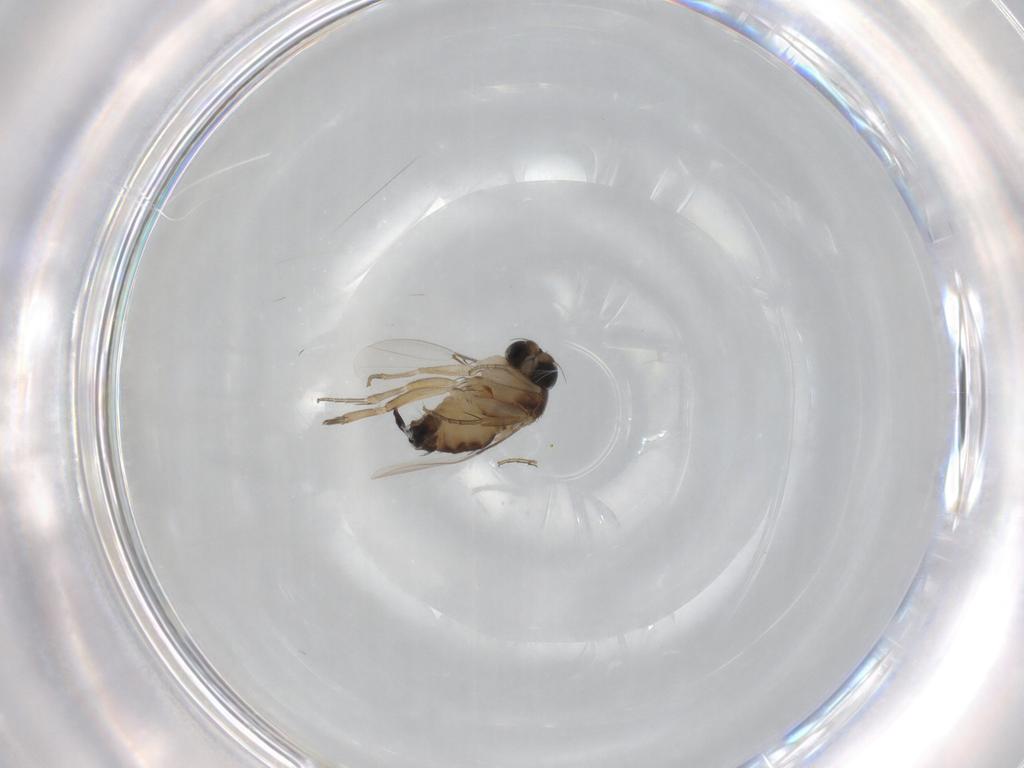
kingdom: Animalia
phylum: Arthropoda
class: Insecta
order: Diptera
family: Phoridae
